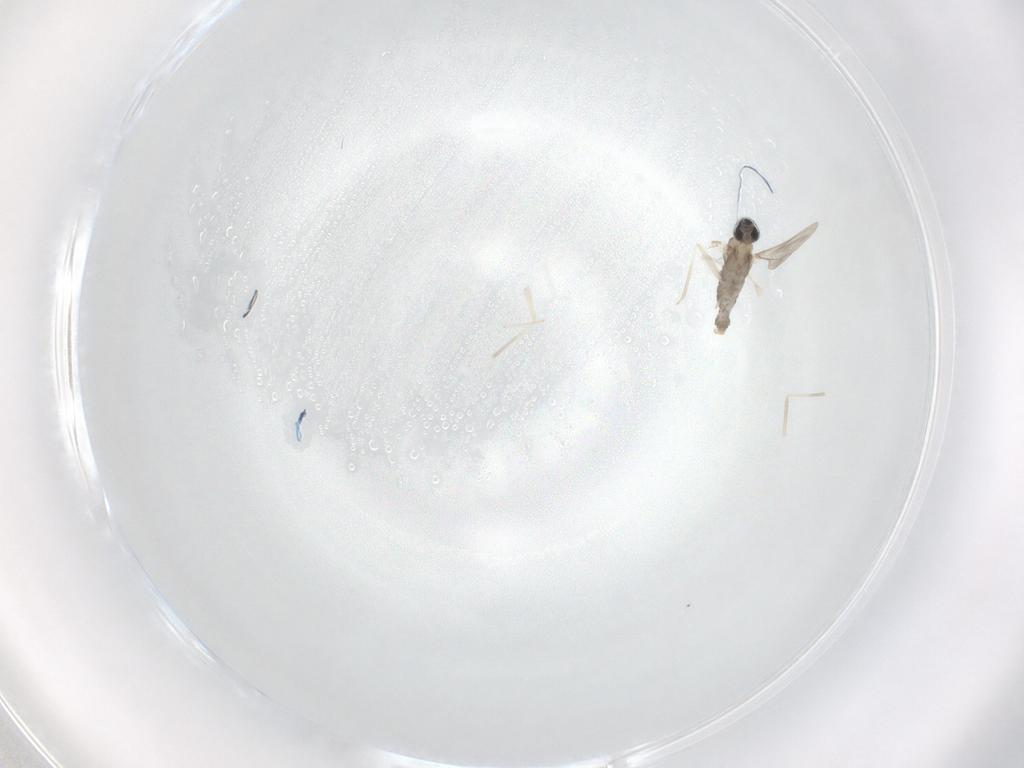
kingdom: Animalia
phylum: Arthropoda
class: Insecta
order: Diptera
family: Cecidomyiidae
